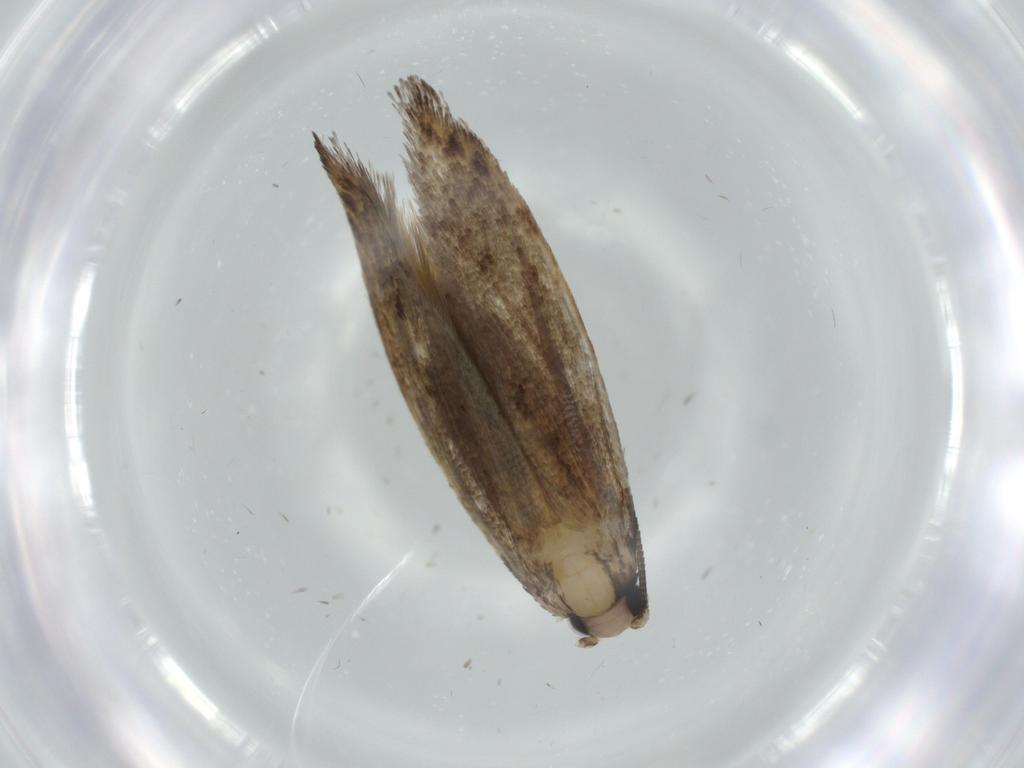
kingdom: Animalia
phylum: Arthropoda
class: Insecta
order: Lepidoptera
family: Tineidae
